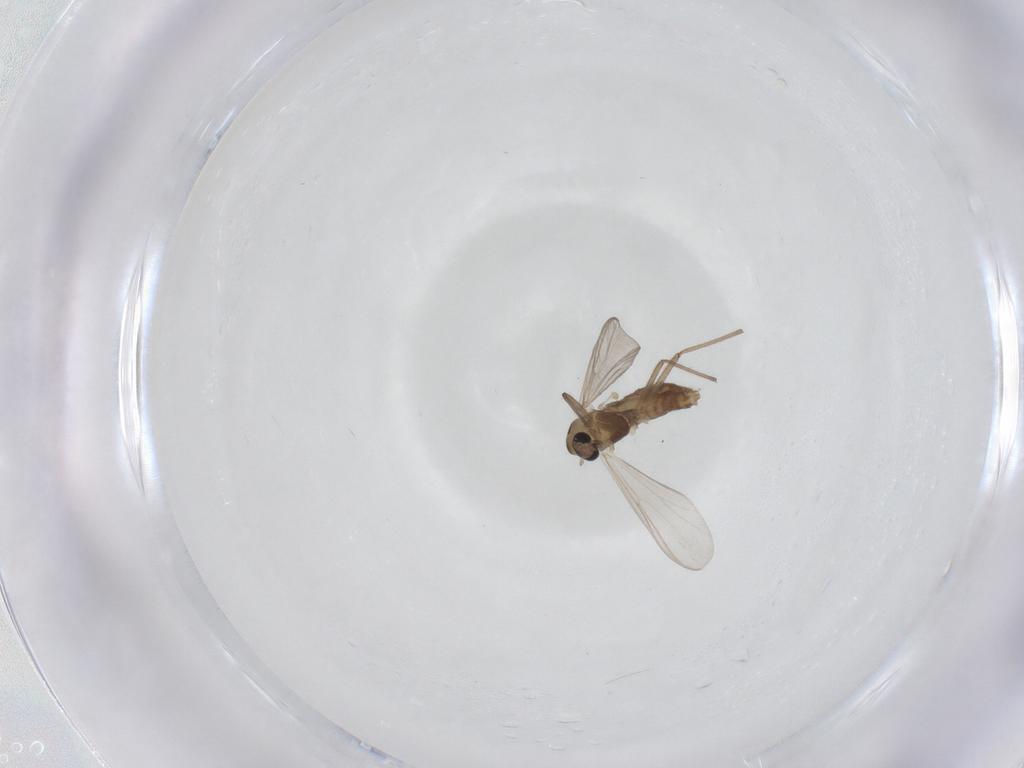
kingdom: Animalia
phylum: Arthropoda
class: Insecta
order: Diptera
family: Chironomidae
